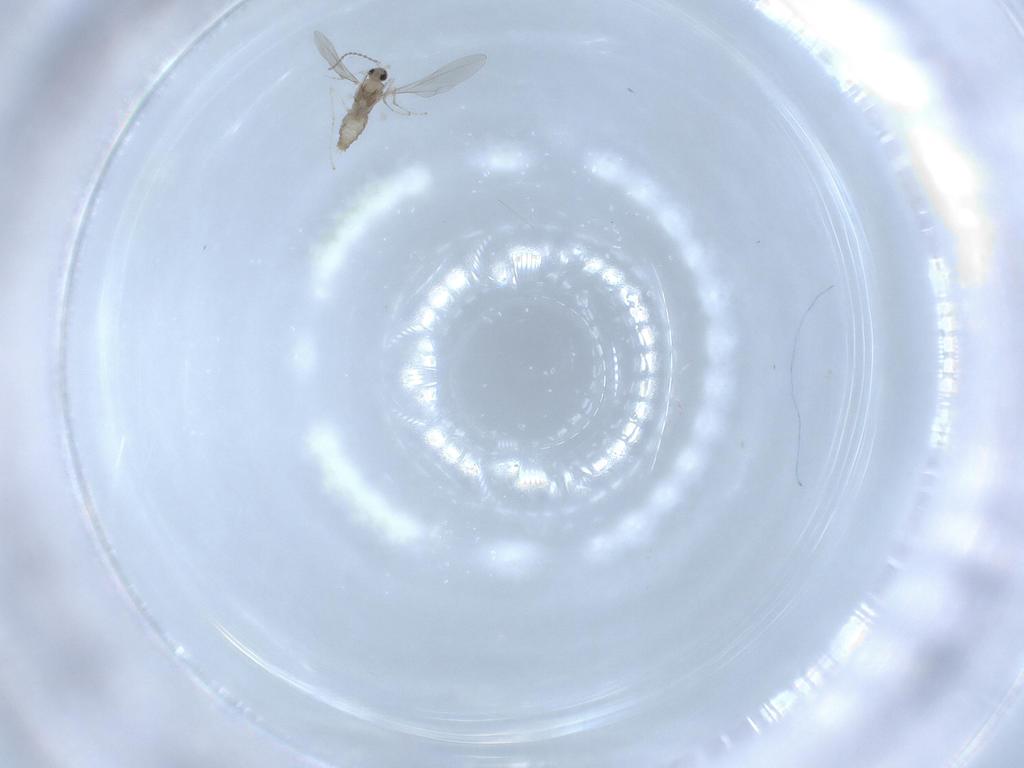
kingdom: Animalia
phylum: Arthropoda
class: Insecta
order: Diptera
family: Cecidomyiidae
